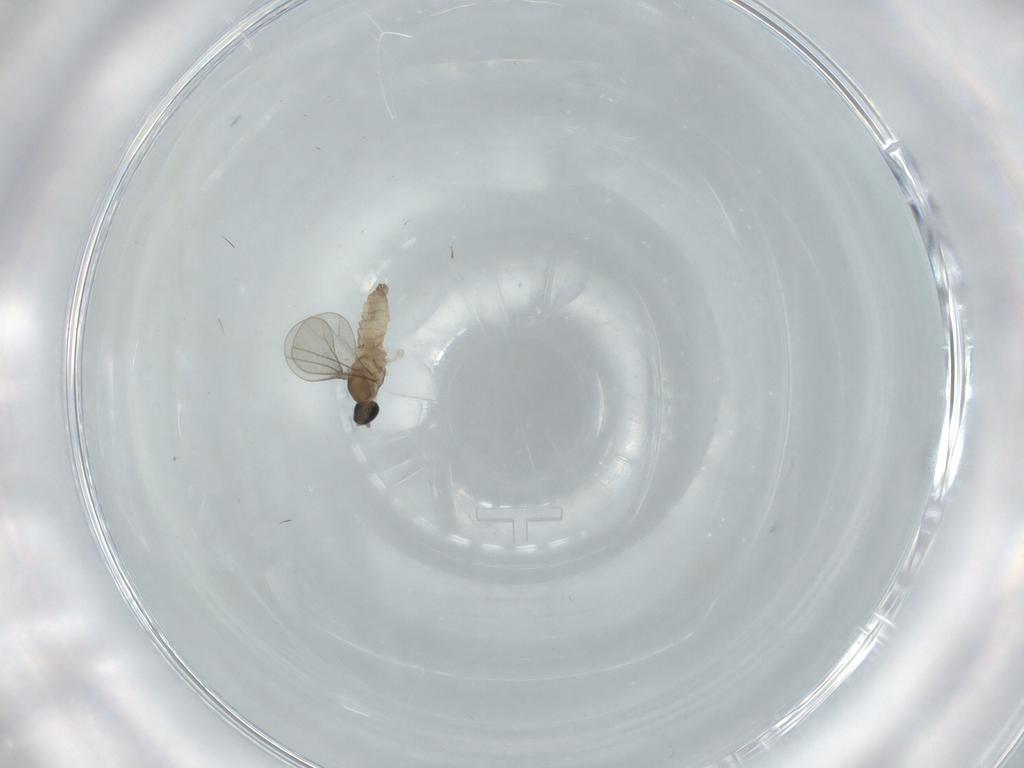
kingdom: Animalia
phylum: Arthropoda
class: Insecta
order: Diptera
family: Cecidomyiidae
